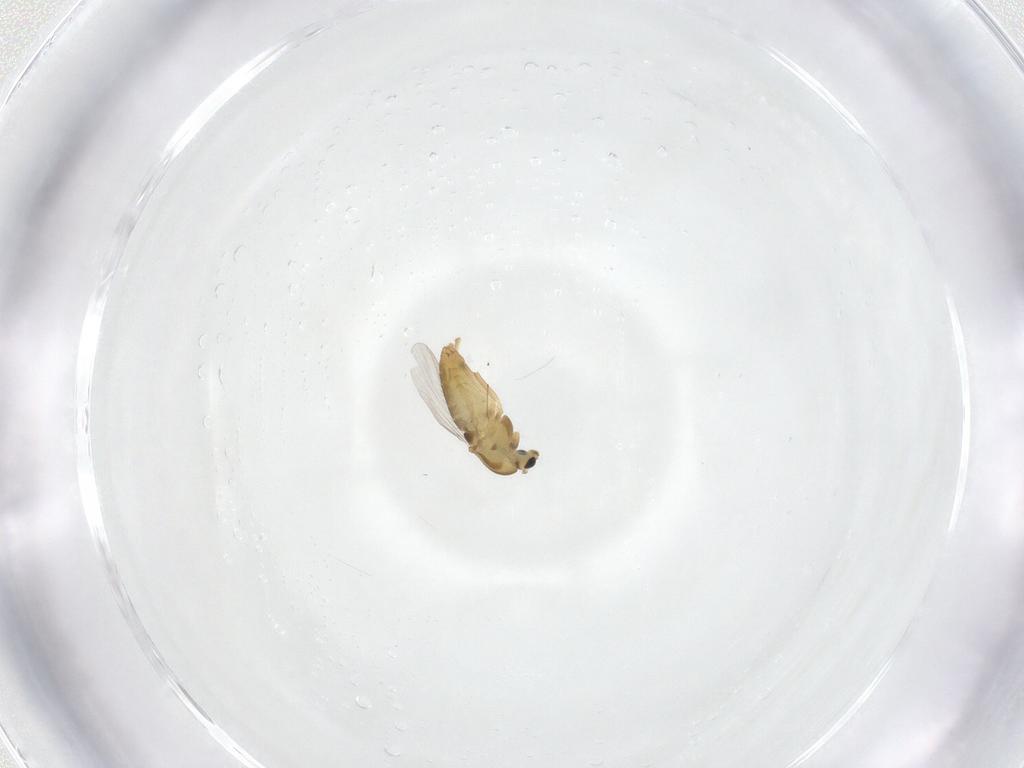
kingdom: Animalia
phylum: Arthropoda
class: Insecta
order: Diptera
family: Chironomidae
